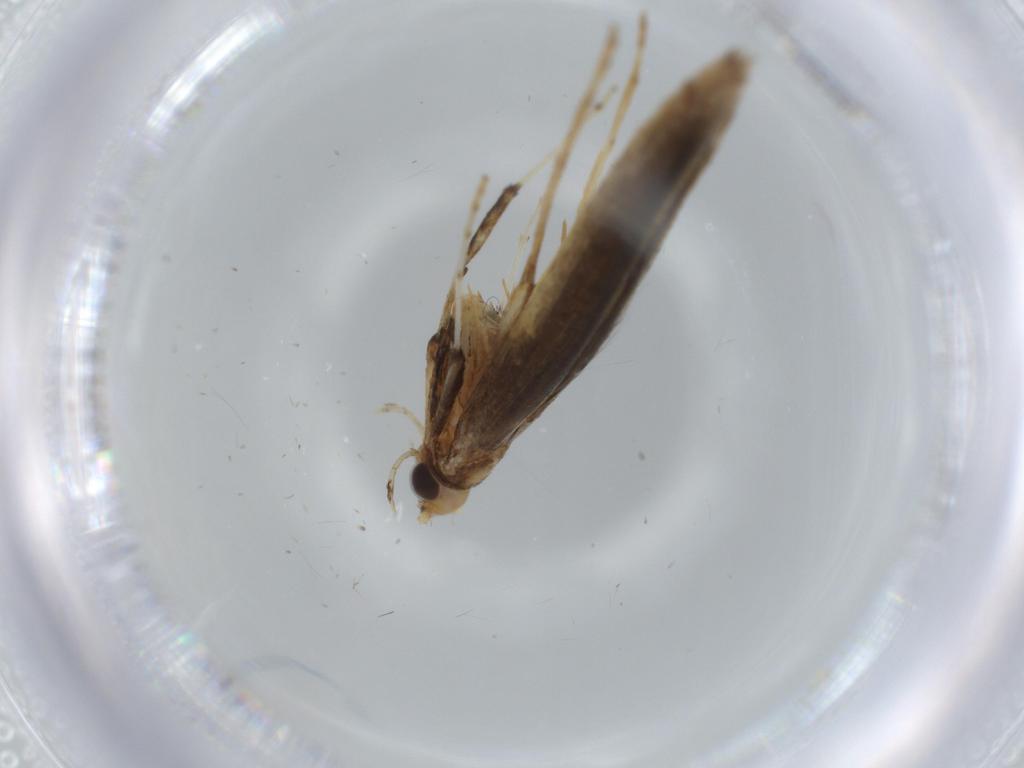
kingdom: Animalia
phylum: Arthropoda
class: Insecta
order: Lepidoptera
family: Gracillariidae
